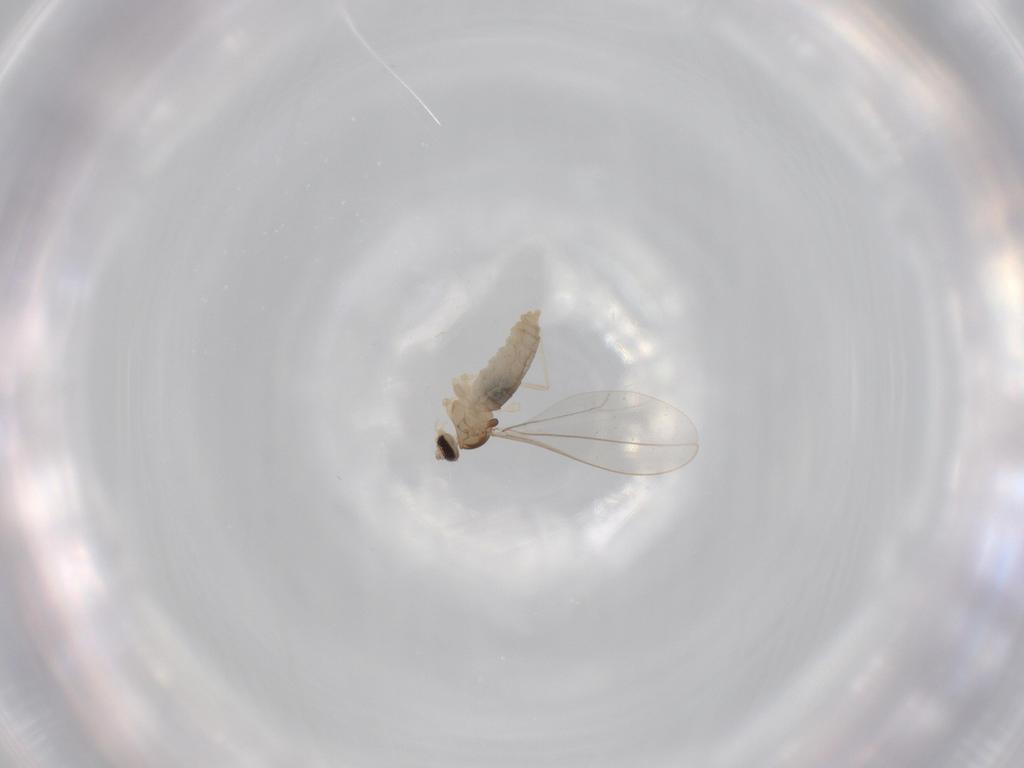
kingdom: Animalia
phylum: Arthropoda
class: Insecta
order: Diptera
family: Cecidomyiidae
